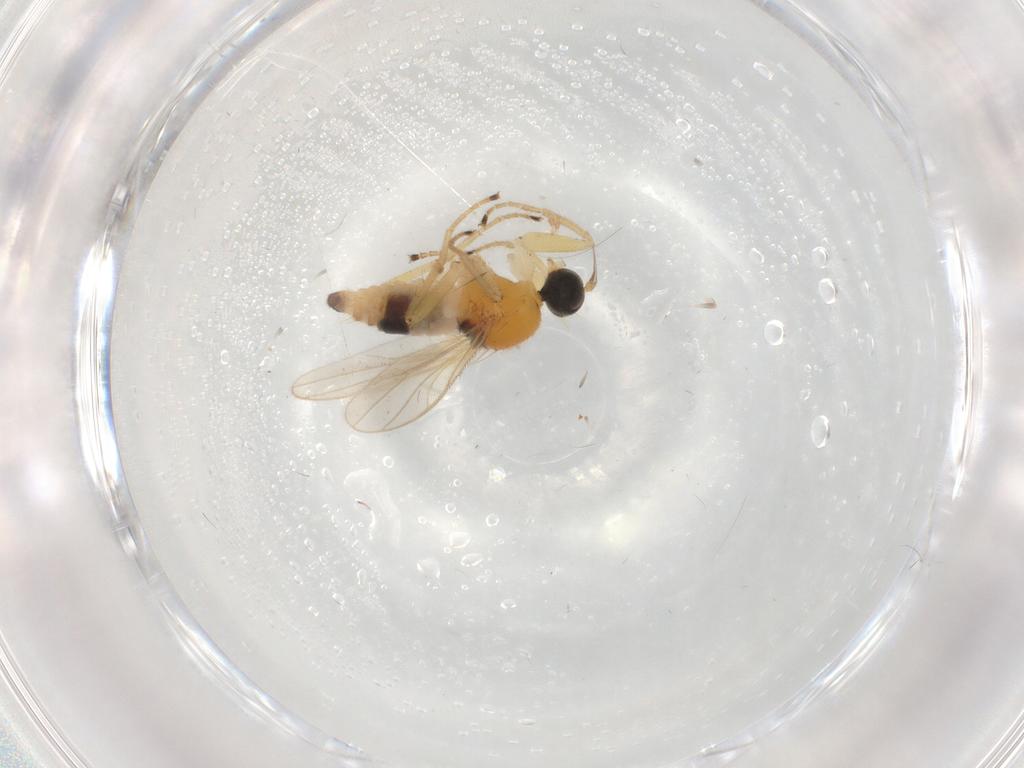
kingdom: Animalia
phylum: Arthropoda
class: Insecta
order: Diptera
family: Hybotidae
